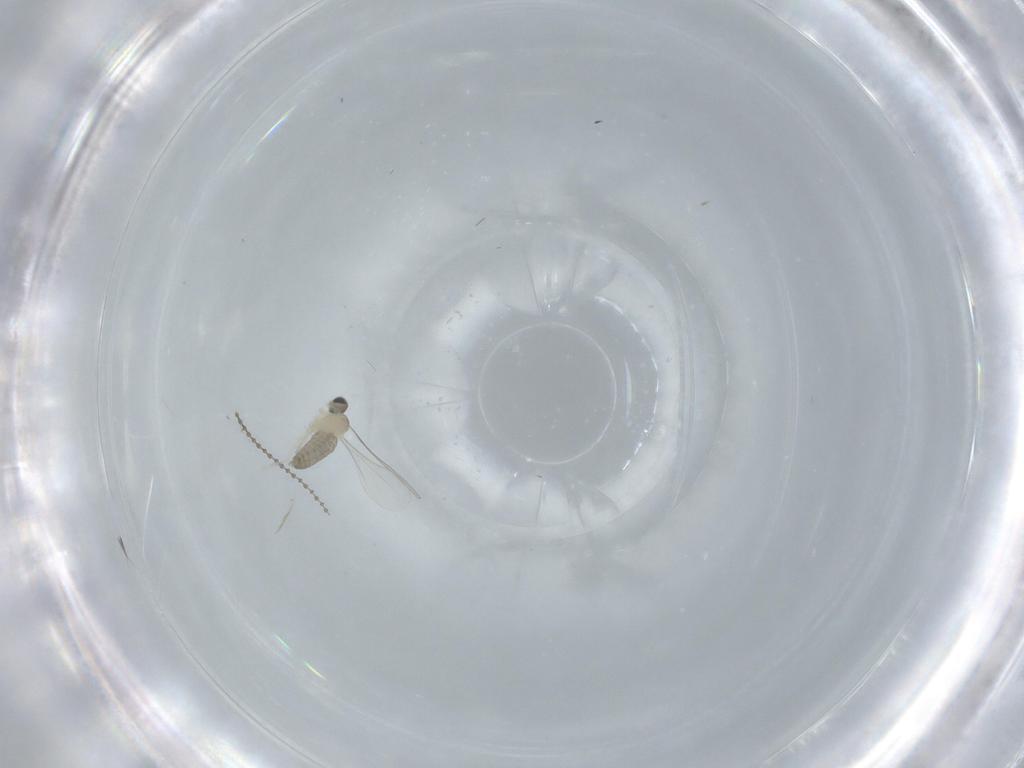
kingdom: Animalia
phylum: Arthropoda
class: Insecta
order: Diptera
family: Cecidomyiidae
